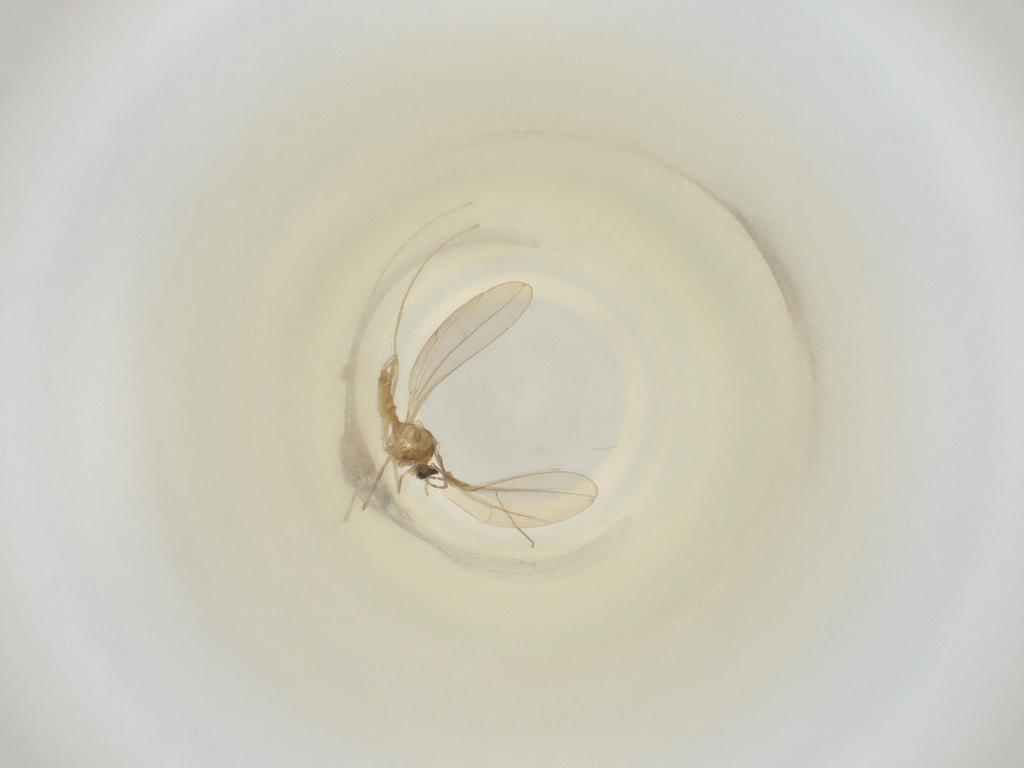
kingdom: Animalia
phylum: Arthropoda
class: Insecta
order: Diptera
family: Cecidomyiidae
